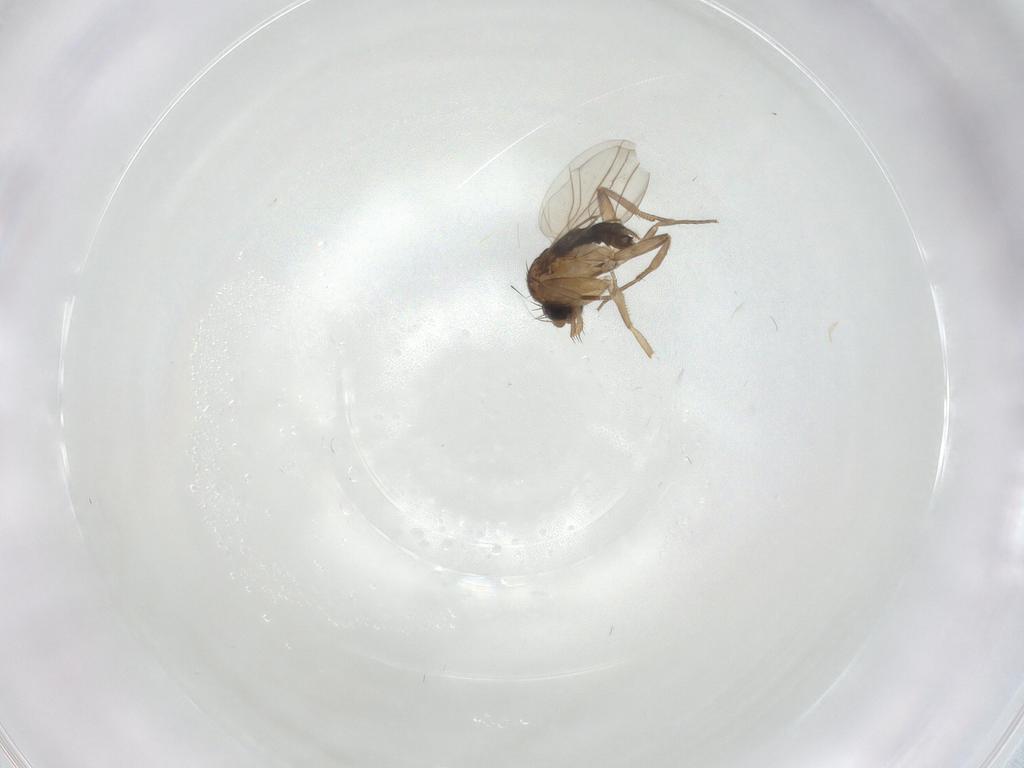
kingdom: Animalia
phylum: Arthropoda
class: Insecta
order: Diptera
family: Phoridae
